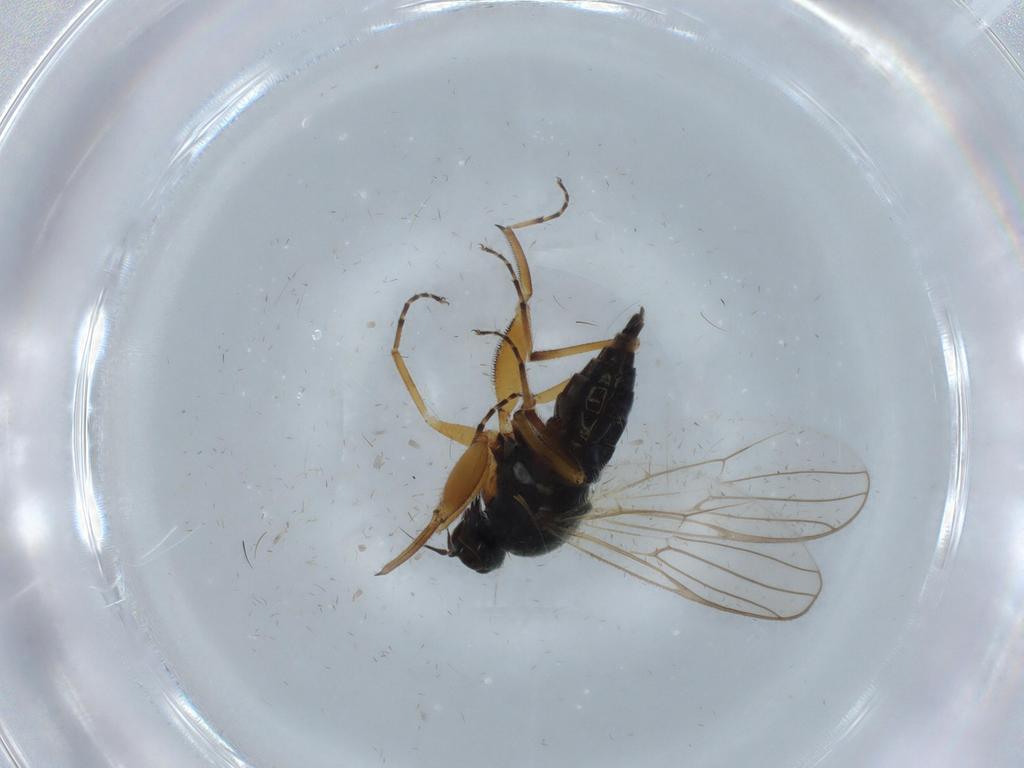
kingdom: Animalia
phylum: Arthropoda
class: Insecta
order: Diptera
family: Hybotidae
